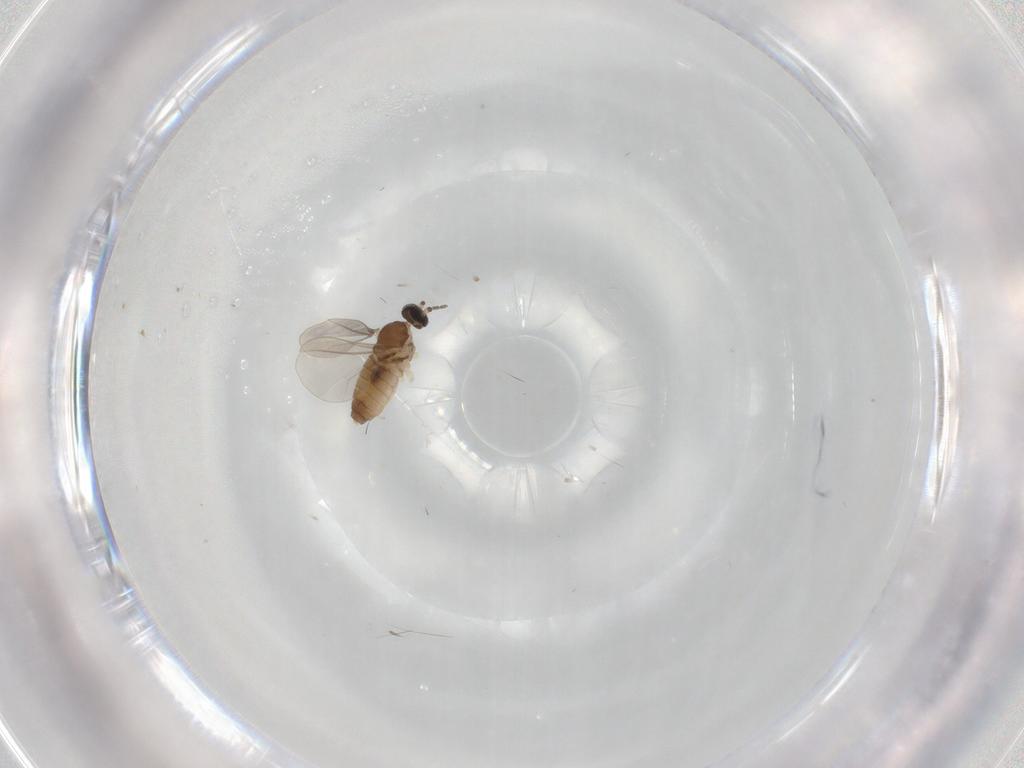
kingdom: Animalia
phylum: Arthropoda
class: Insecta
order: Diptera
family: Cecidomyiidae
